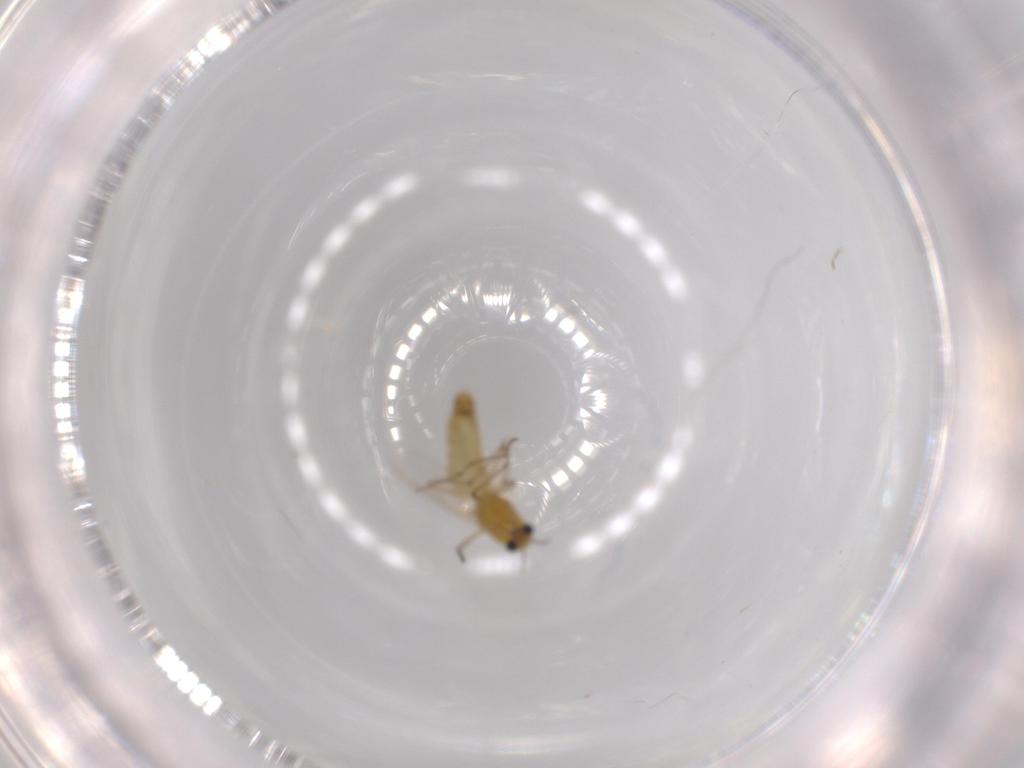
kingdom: Animalia
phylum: Arthropoda
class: Insecta
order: Diptera
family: Chironomidae
